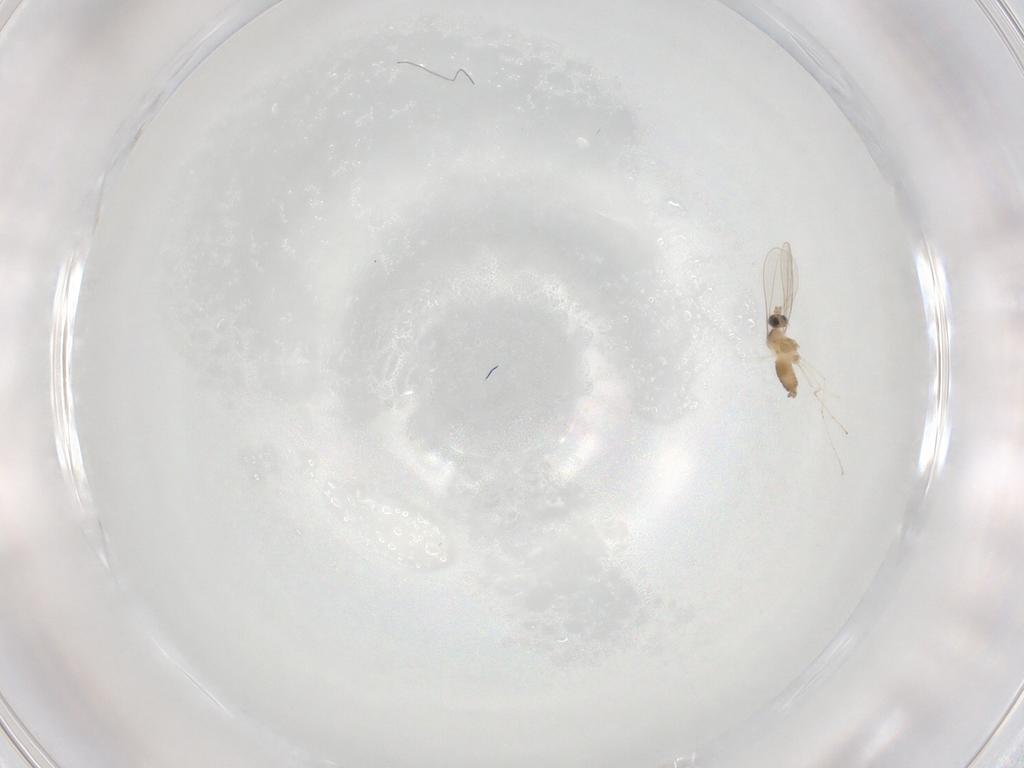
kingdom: Animalia
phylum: Arthropoda
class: Insecta
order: Diptera
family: Cecidomyiidae
